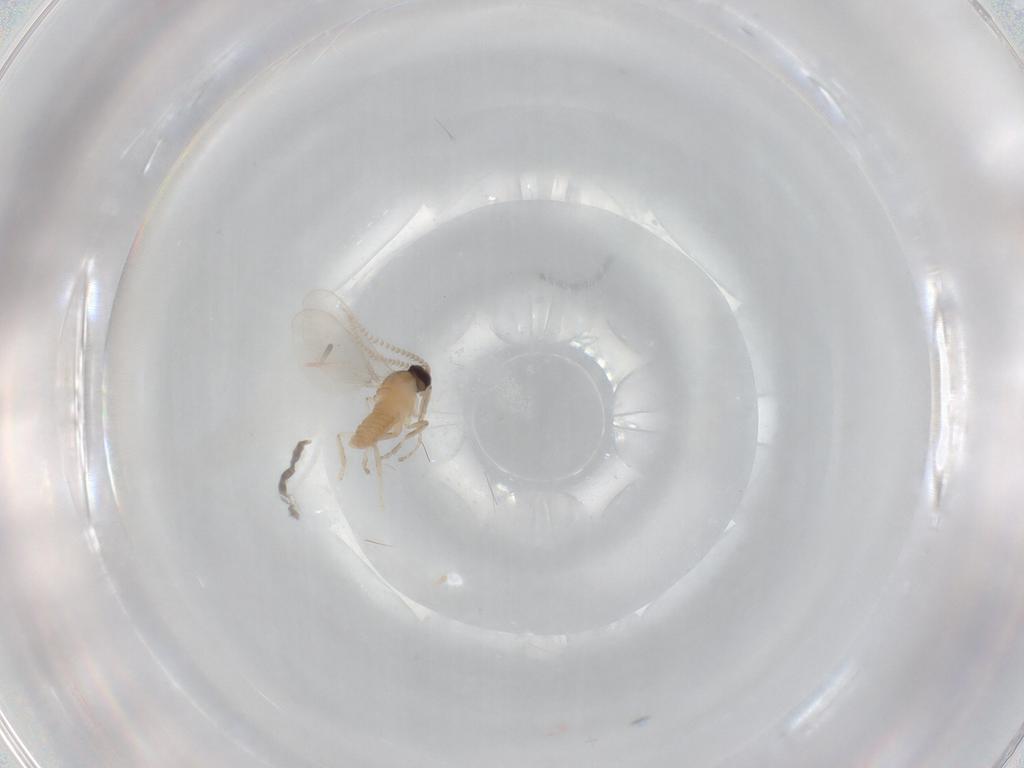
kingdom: Animalia
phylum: Arthropoda
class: Insecta
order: Diptera
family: Cecidomyiidae
